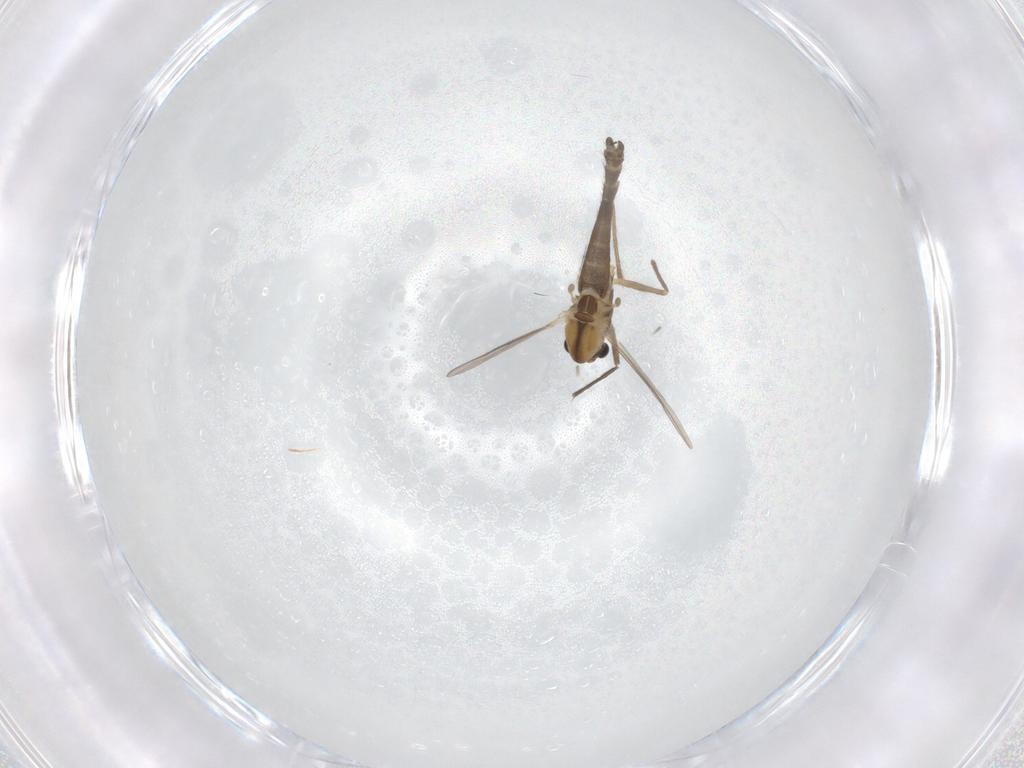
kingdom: Animalia
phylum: Arthropoda
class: Insecta
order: Diptera
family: Chironomidae
